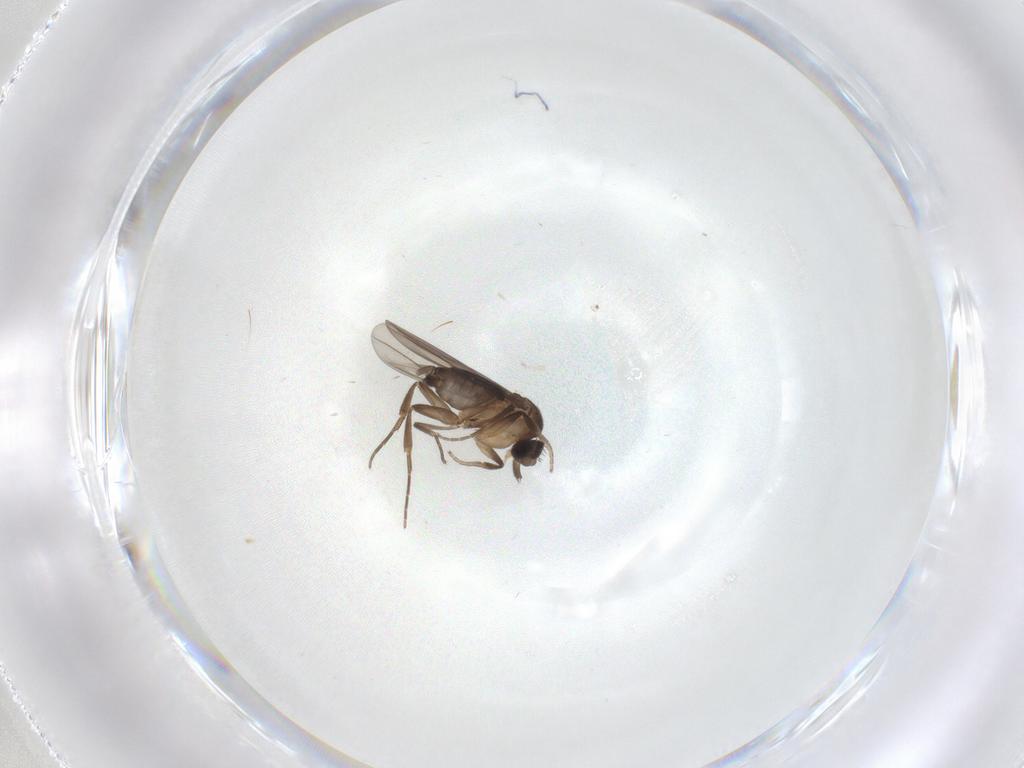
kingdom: Animalia
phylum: Arthropoda
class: Insecta
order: Diptera
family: Phoridae
